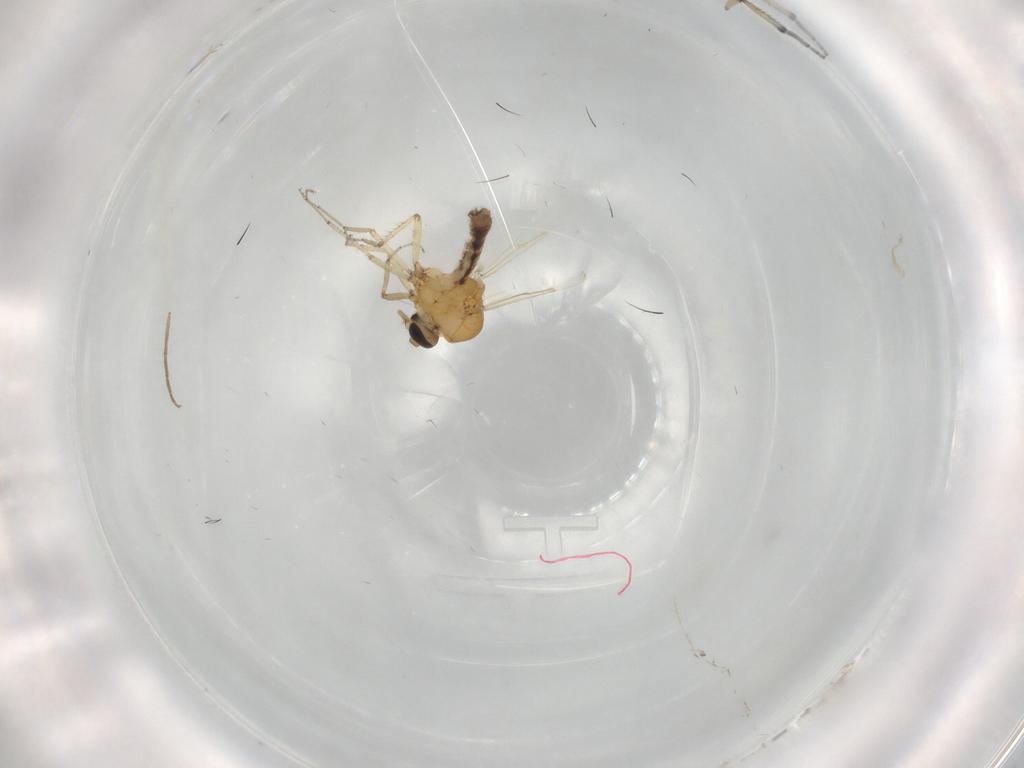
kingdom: Animalia
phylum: Arthropoda
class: Insecta
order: Diptera
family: Ceratopogonidae
